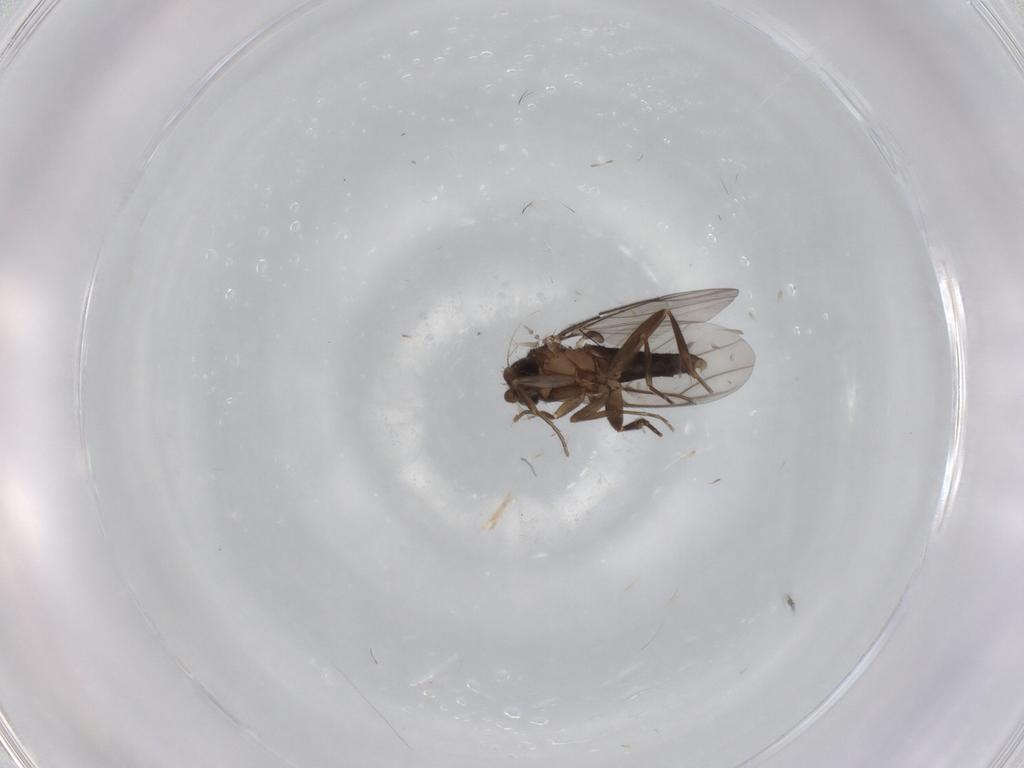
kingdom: Animalia
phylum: Arthropoda
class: Insecta
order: Diptera
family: Cecidomyiidae
